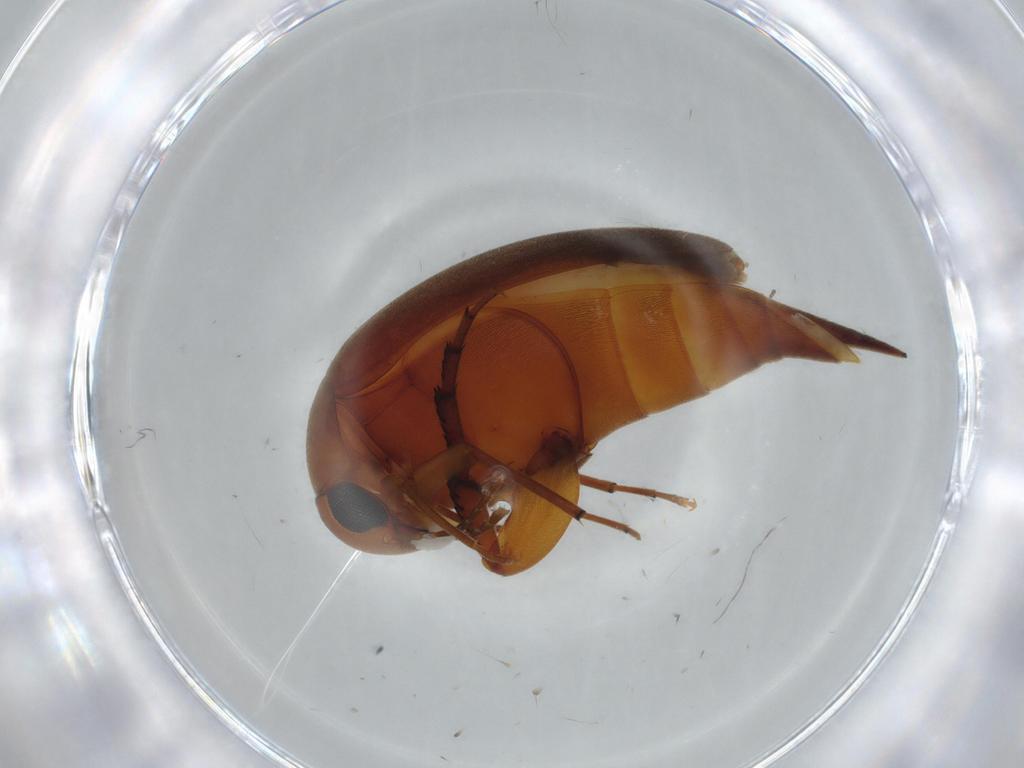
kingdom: Animalia
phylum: Arthropoda
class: Insecta
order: Coleoptera
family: Mordellidae
